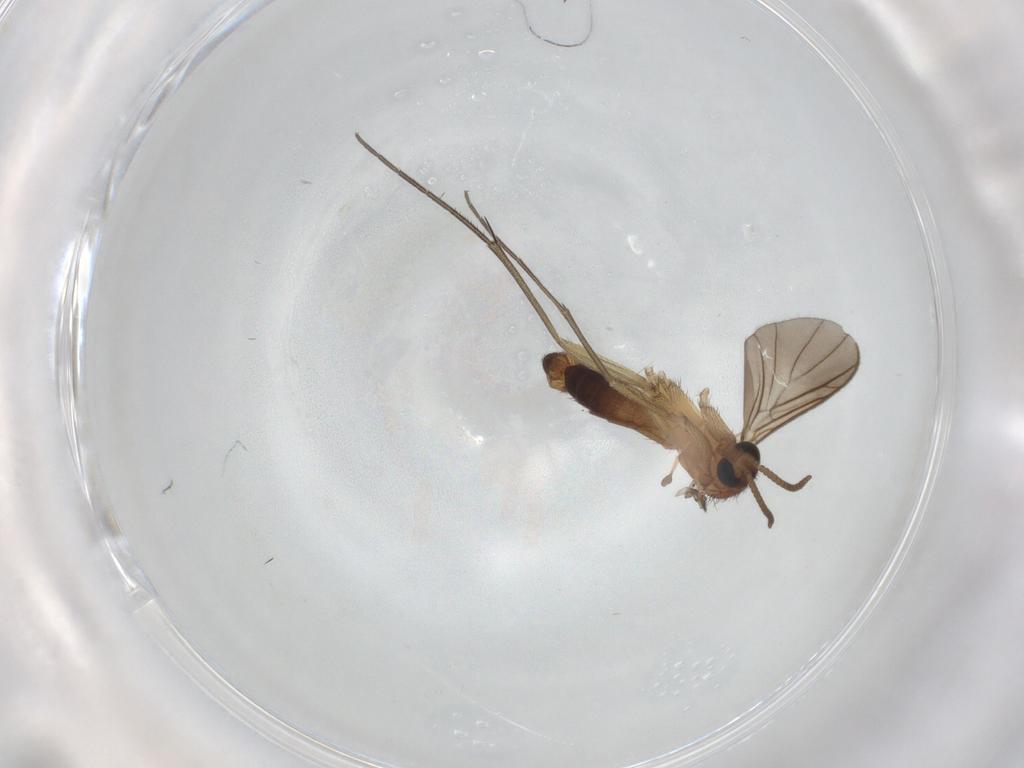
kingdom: Animalia
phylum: Arthropoda
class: Insecta
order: Diptera
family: Keroplatidae
